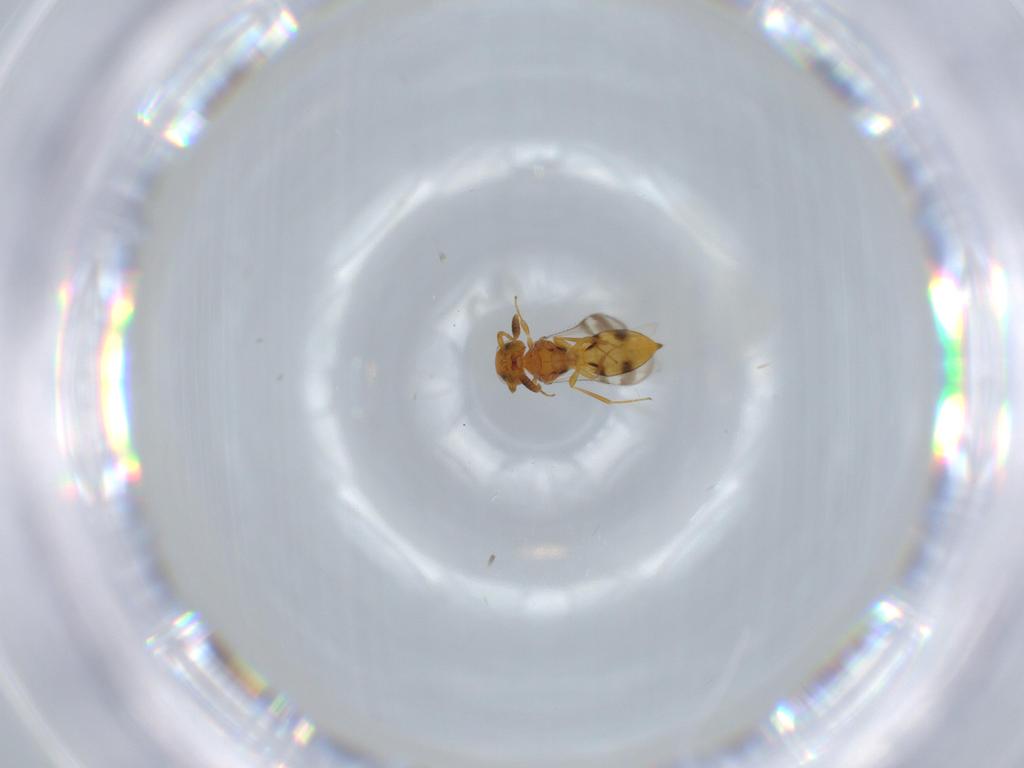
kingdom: Animalia
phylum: Arthropoda
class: Insecta
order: Hymenoptera
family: Scelionidae
